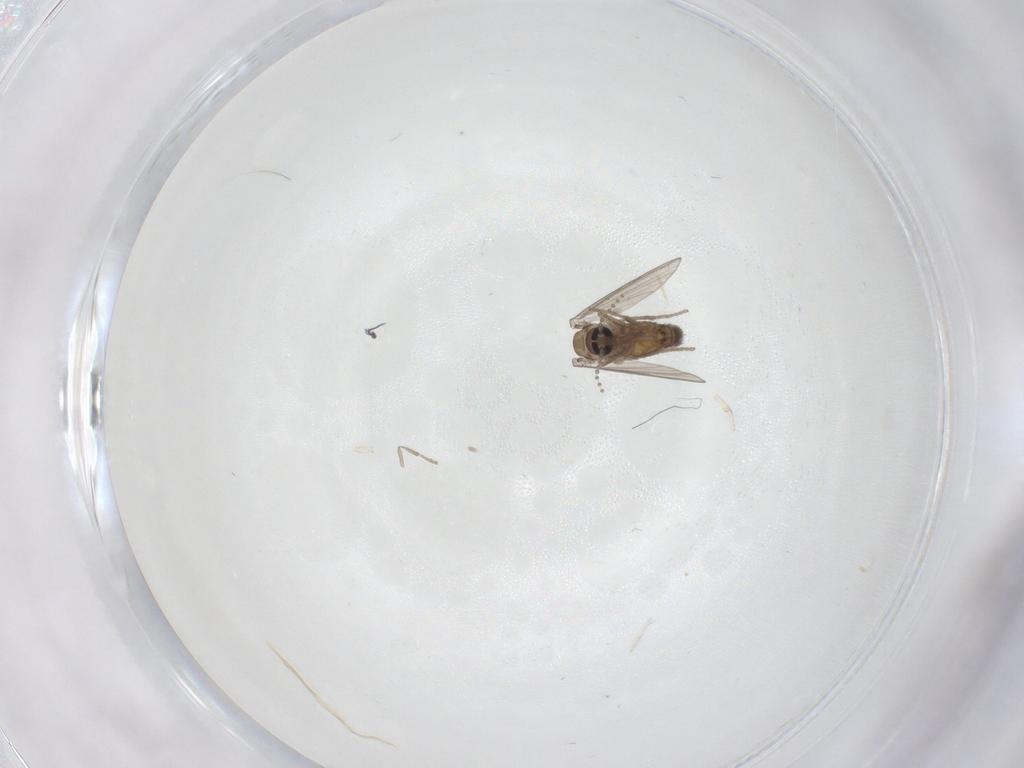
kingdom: Animalia
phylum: Arthropoda
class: Insecta
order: Diptera
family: Psychodidae
